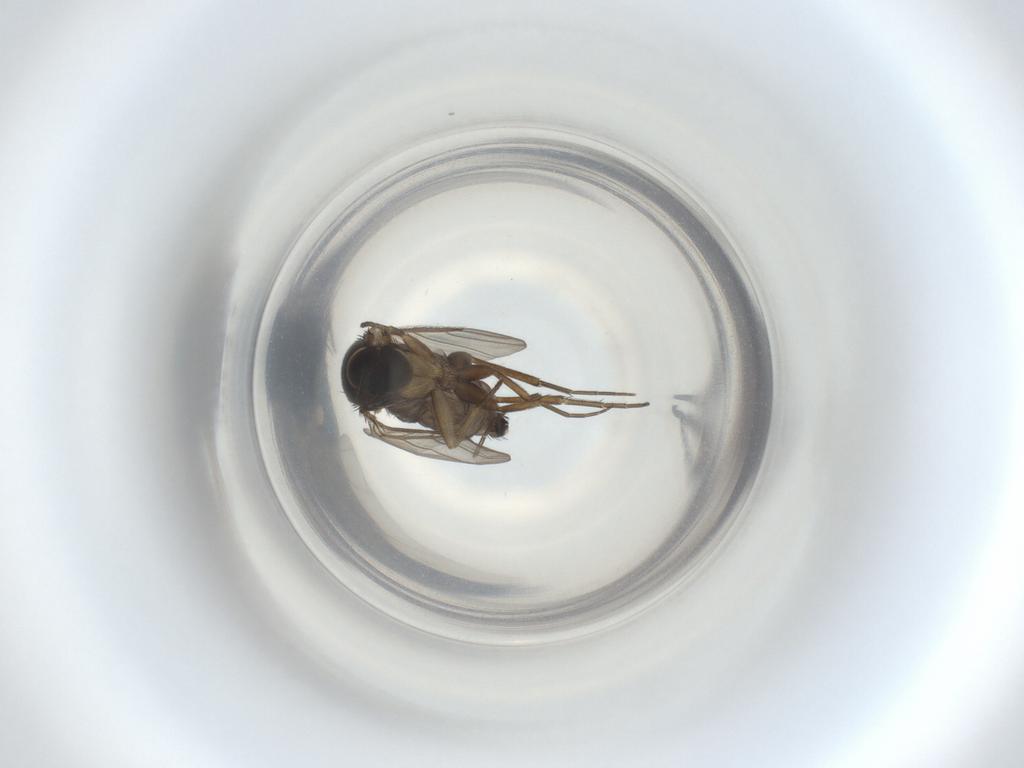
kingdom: Animalia
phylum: Arthropoda
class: Insecta
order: Diptera
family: Phoridae
